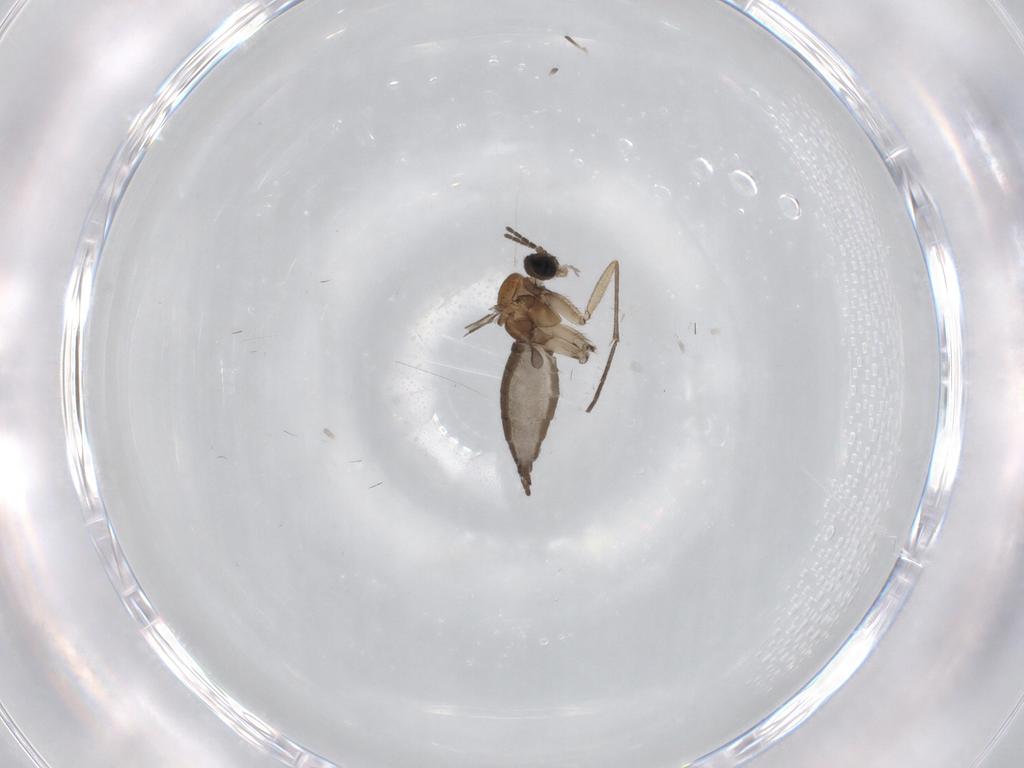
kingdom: Animalia
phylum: Arthropoda
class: Insecta
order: Diptera
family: Sciaridae
